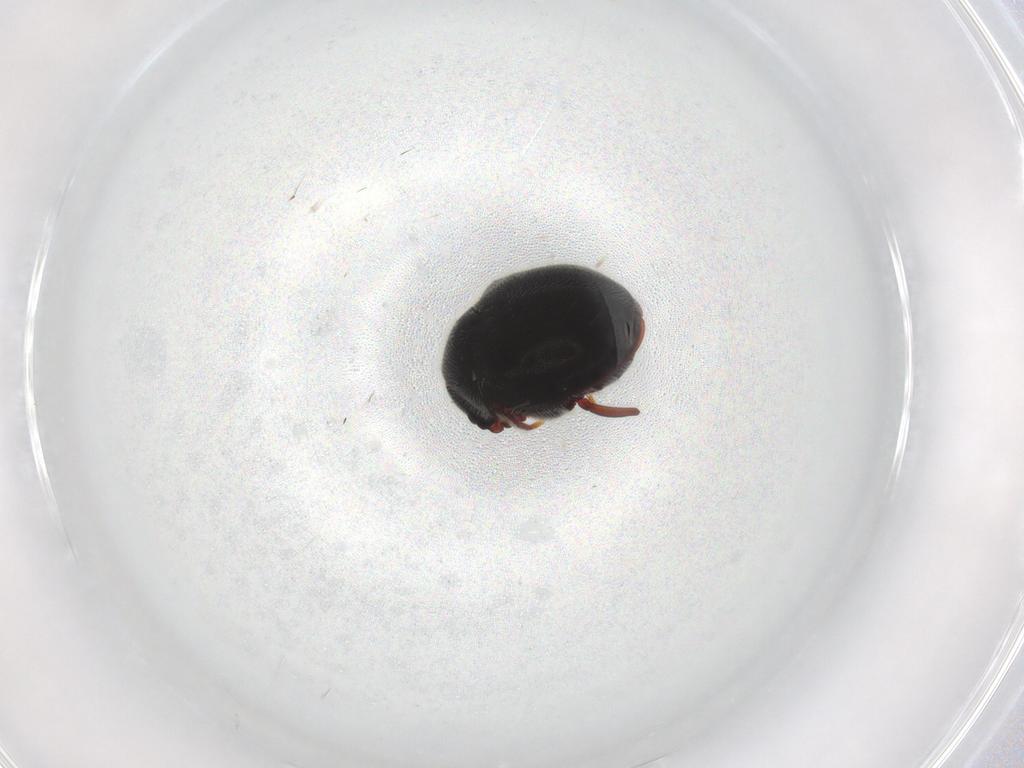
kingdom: Animalia
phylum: Arthropoda
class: Insecta
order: Coleoptera
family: Ptinidae
